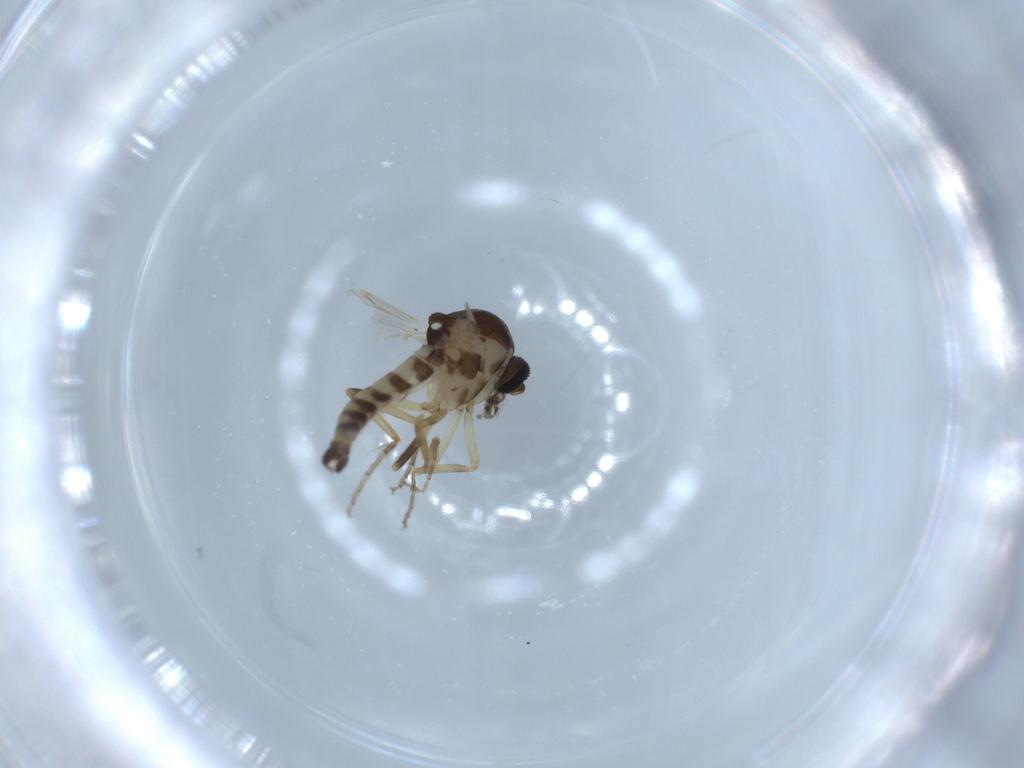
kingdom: Animalia
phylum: Arthropoda
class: Insecta
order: Diptera
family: Ceratopogonidae
